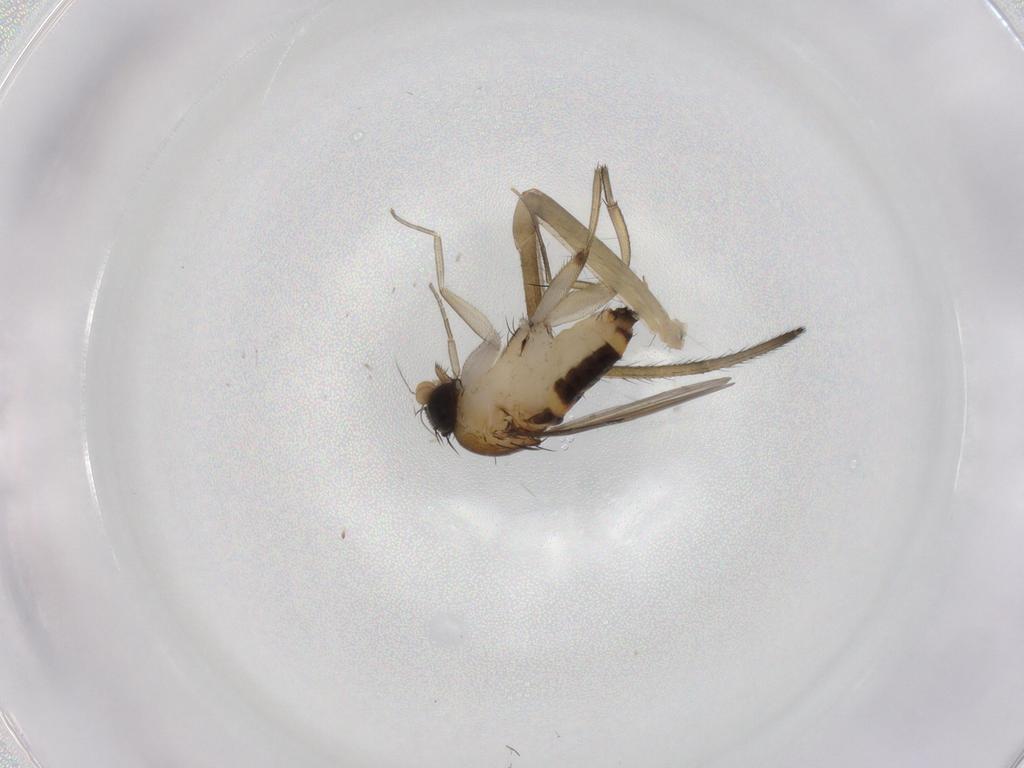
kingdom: Animalia
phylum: Arthropoda
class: Insecta
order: Diptera
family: Phoridae
